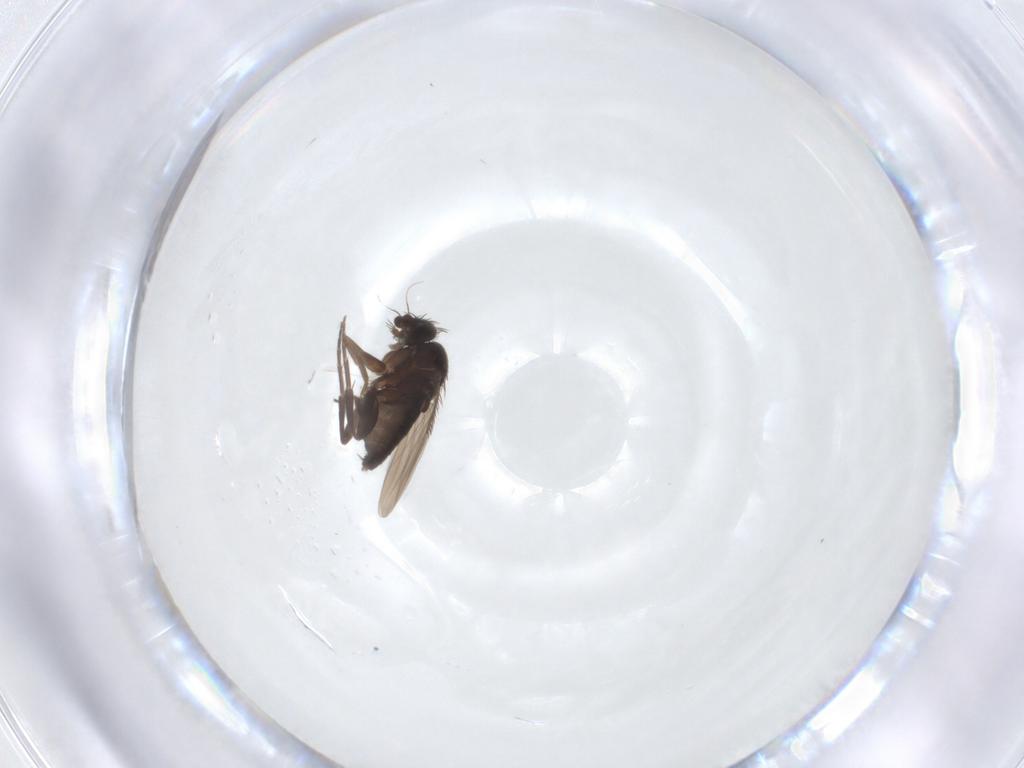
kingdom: Animalia
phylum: Arthropoda
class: Insecta
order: Diptera
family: Phoridae
